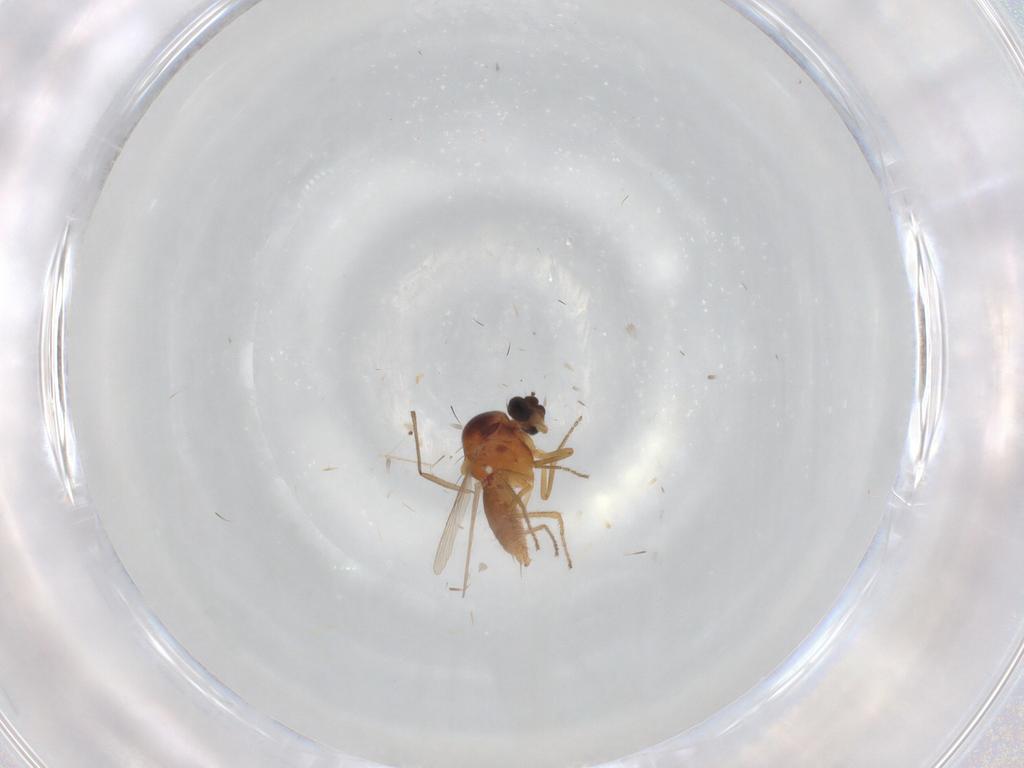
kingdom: Animalia
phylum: Arthropoda
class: Insecta
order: Diptera
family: Ceratopogonidae
